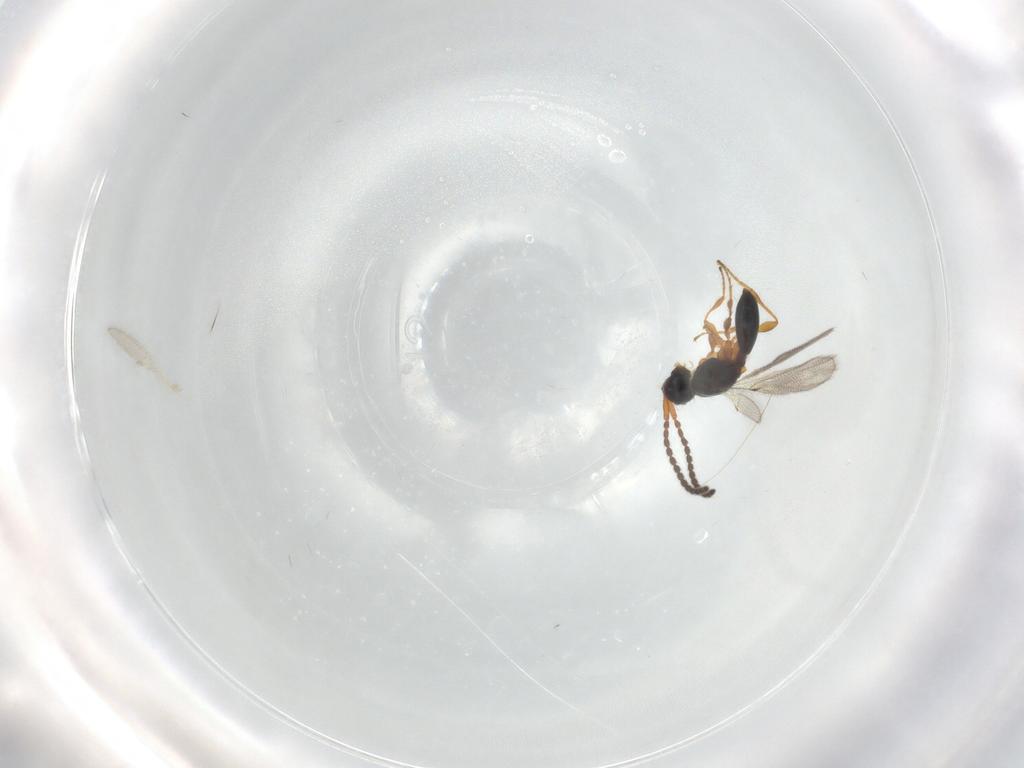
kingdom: Animalia
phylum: Arthropoda
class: Insecta
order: Hymenoptera
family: Diapriidae
